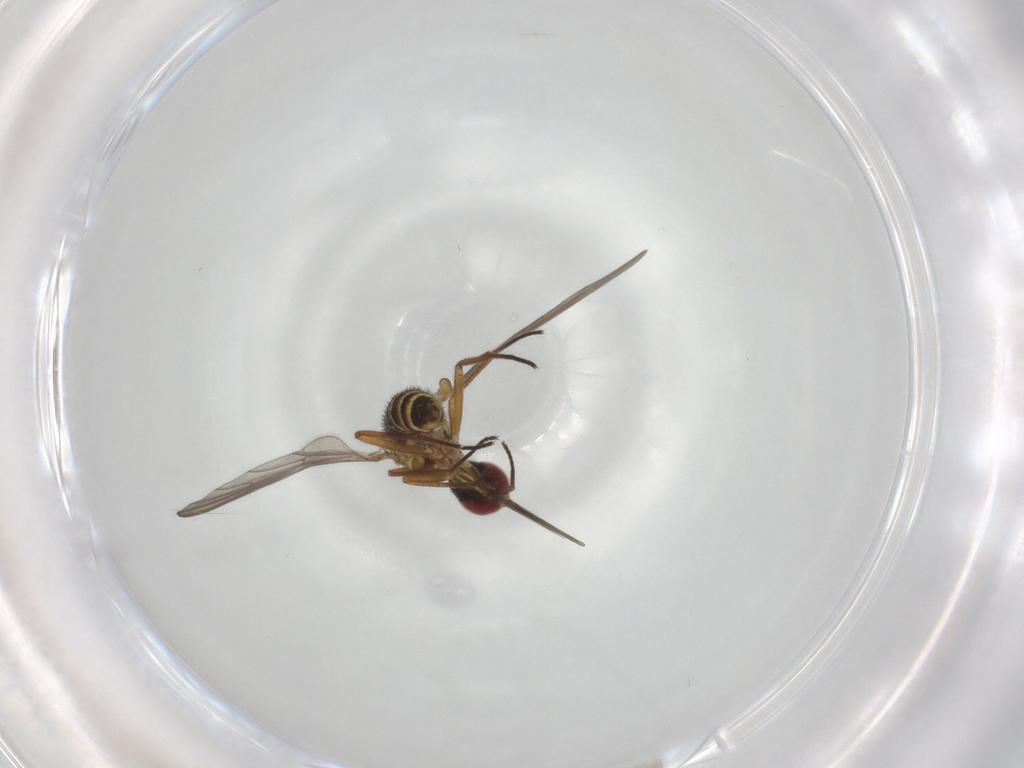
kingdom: Animalia
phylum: Arthropoda
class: Insecta
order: Diptera
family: Bombyliidae
